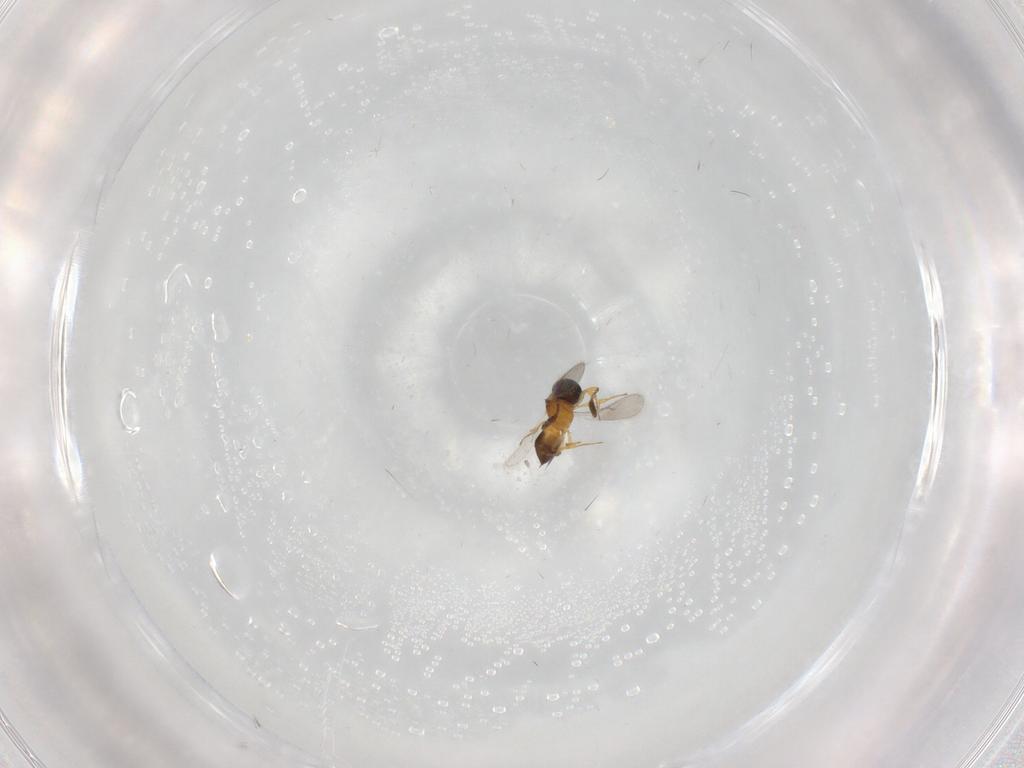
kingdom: Animalia
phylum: Arthropoda
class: Insecta
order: Hymenoptera
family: Scelionidae
